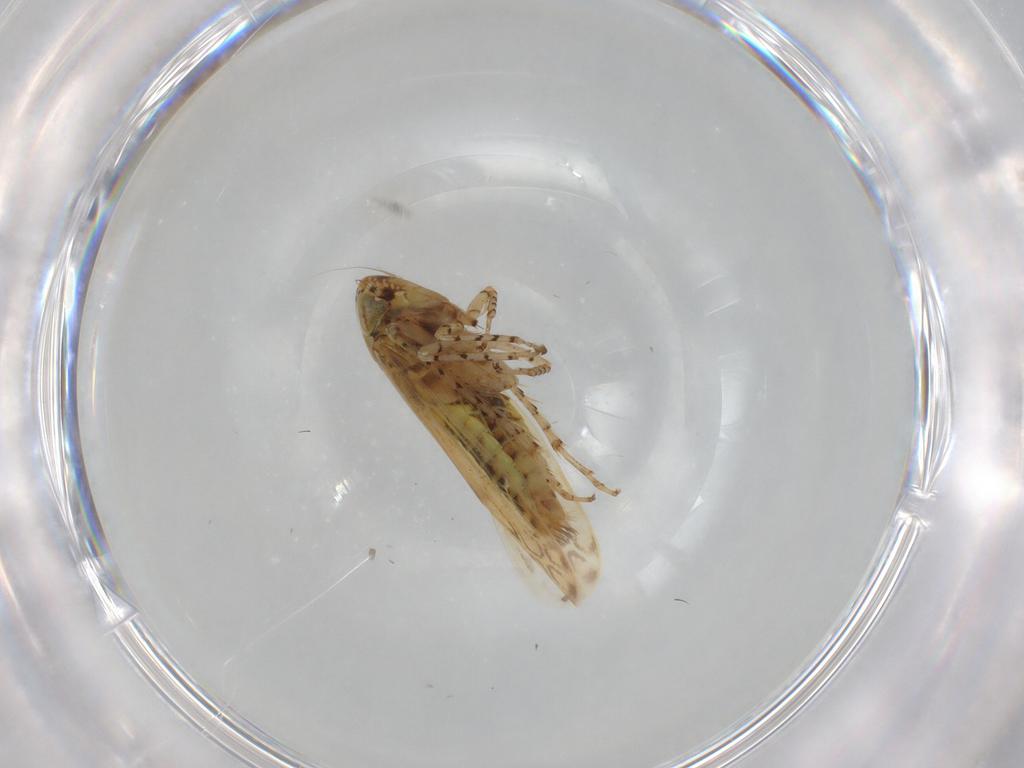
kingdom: Animalia
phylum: Arthropoda
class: Insecta
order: Hemiptera
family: Cicadellidae
